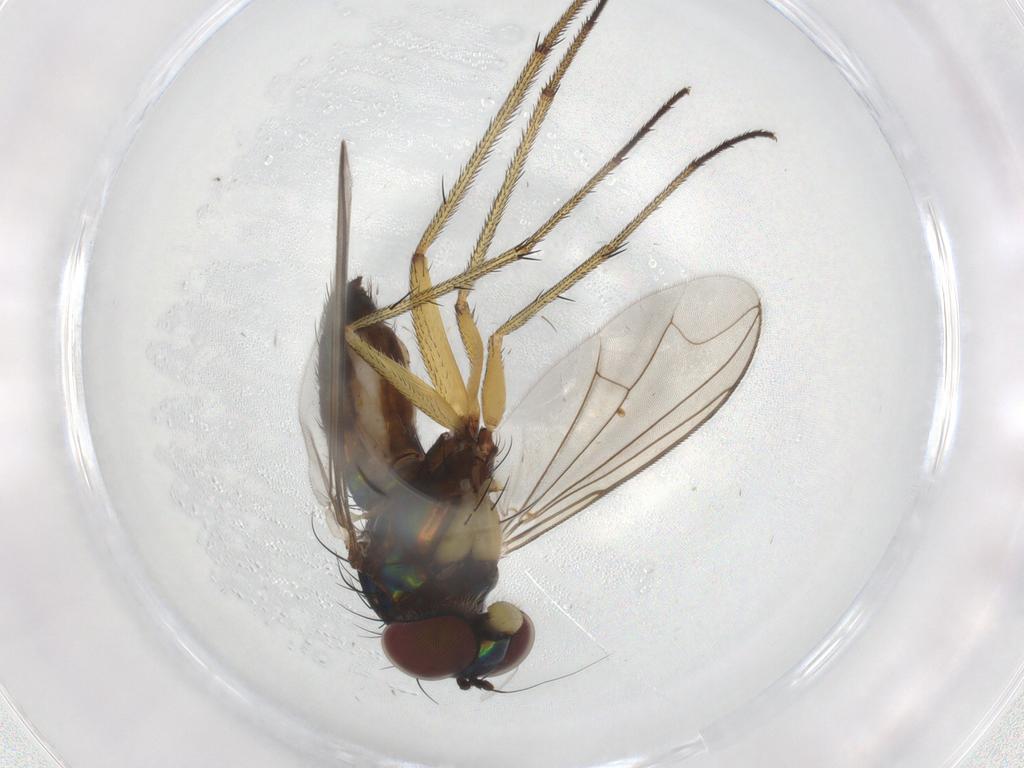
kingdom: Animalia
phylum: Arthropoda
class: Insecta
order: Diptera
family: Dolichopodidae
